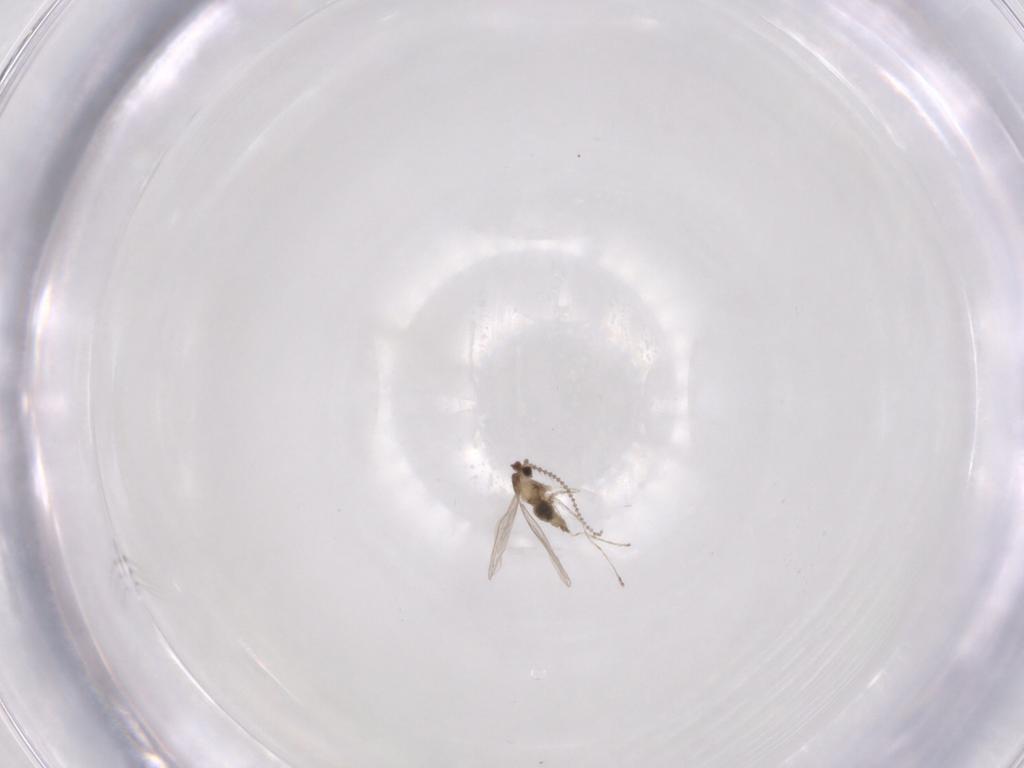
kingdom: Animalia
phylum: Arthropoda
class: Insecta
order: Diptera
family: Cecidomyiidae
